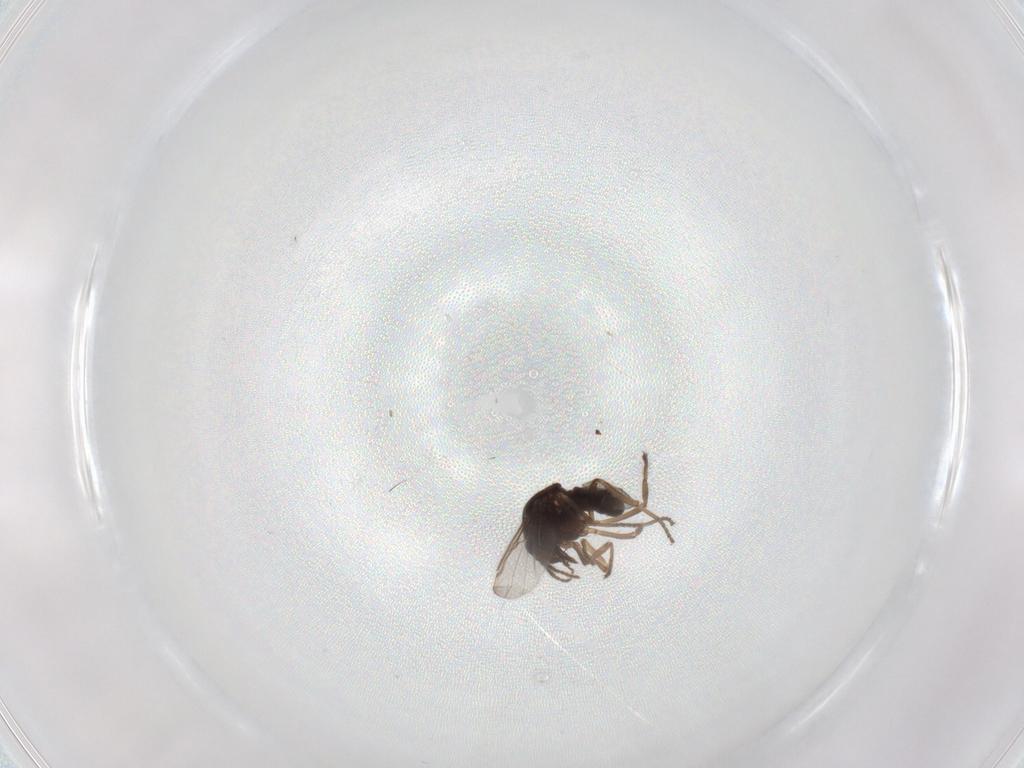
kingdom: Animalia
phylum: Arthropoda
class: Insecta
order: Diptera
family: Ceratopogonidae
